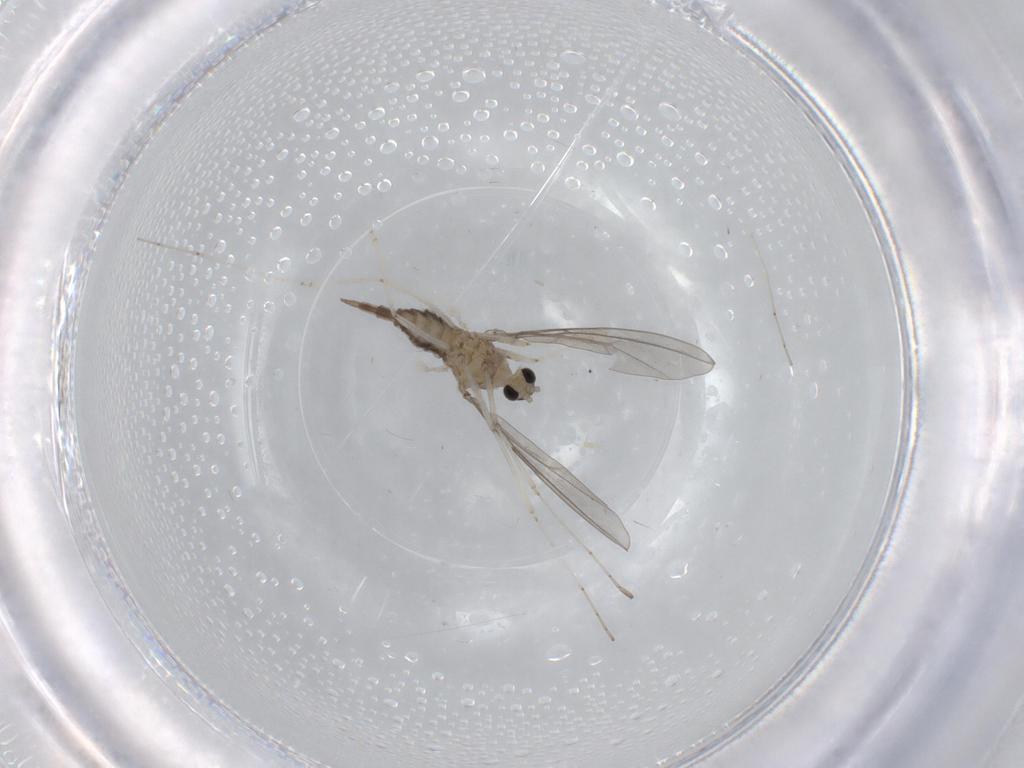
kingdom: Animalia
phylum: Arthropoda
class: Insecta
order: Diptera
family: Cecidomyiidae
